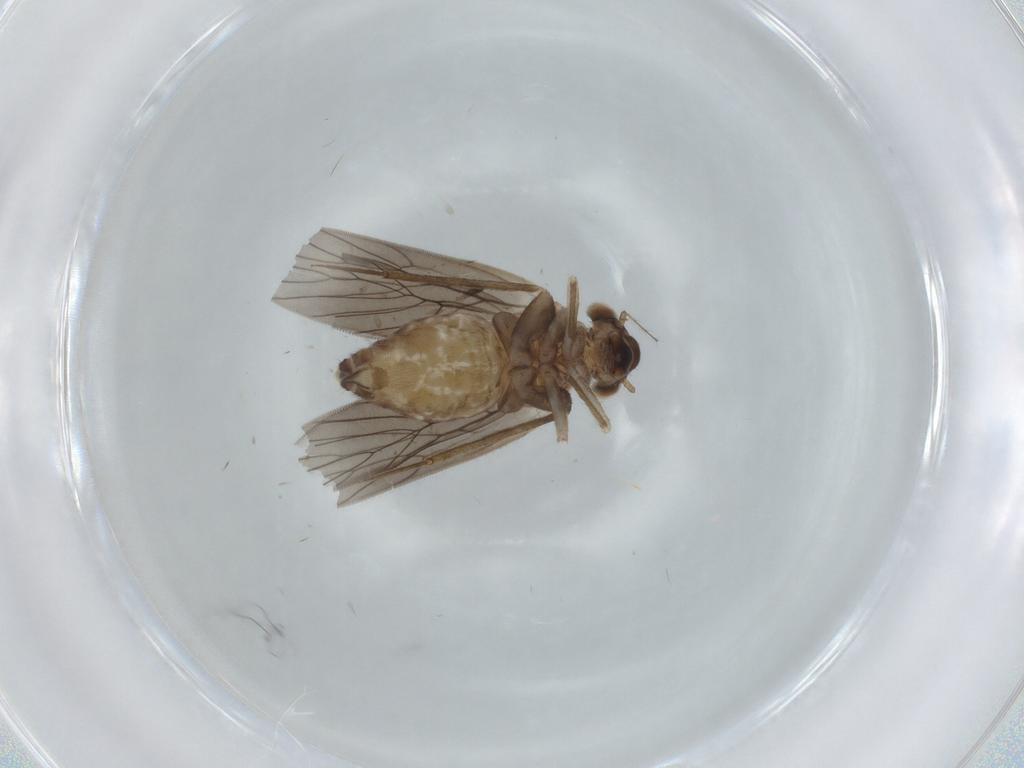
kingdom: Animalia
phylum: Arthropoda
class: Insecta
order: Psocodea
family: Lepidopsocidae
